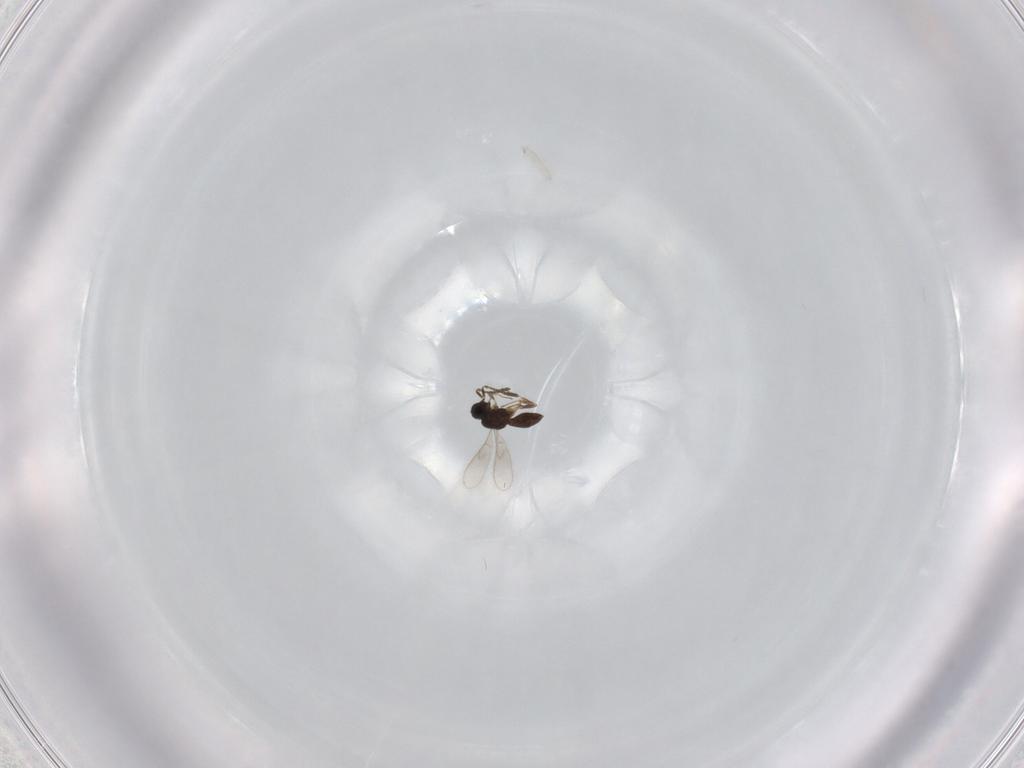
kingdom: Animalia
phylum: Arthropoda
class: Insecta
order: Hymenoptera
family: Scelionidae
